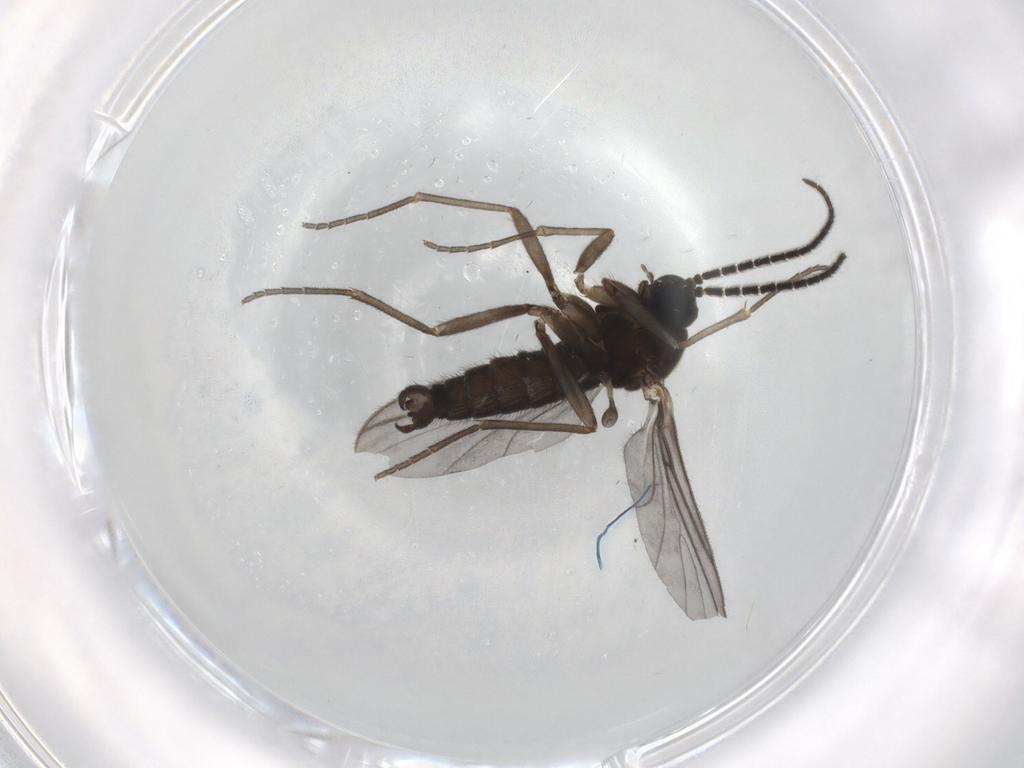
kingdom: Animalia
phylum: Arthropoda
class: Insecta
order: Diptera
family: Sciaridae
